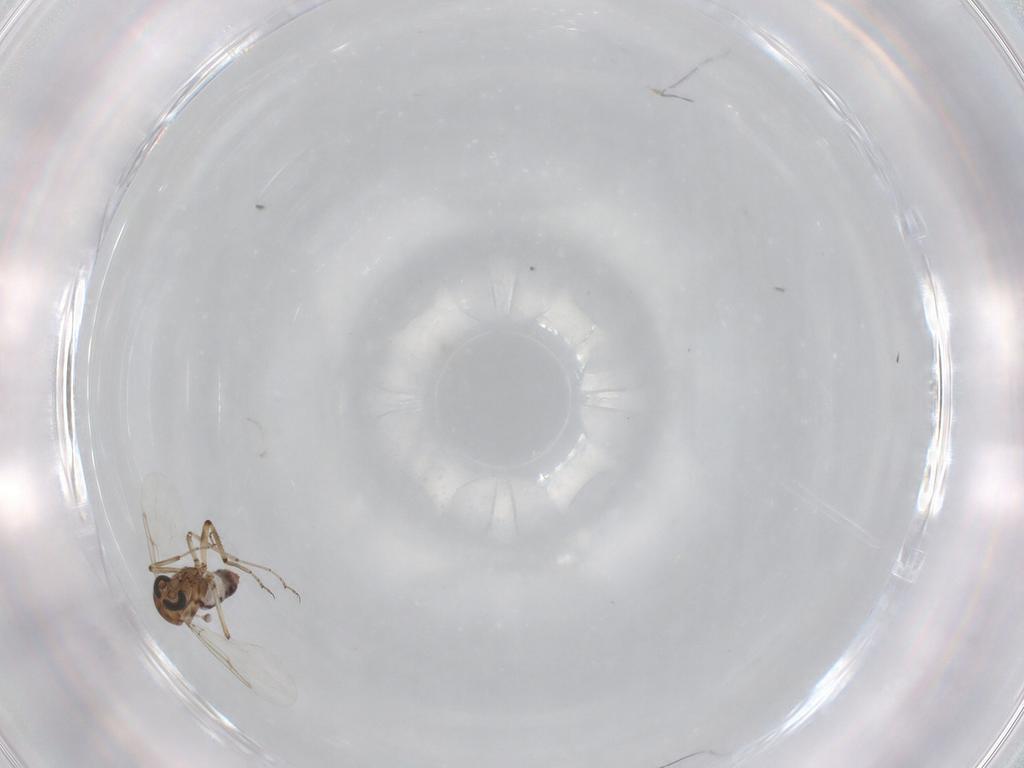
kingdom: Animalia
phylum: Arthropoda
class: Insecta
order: Diptera
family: Ceratopogonidae
